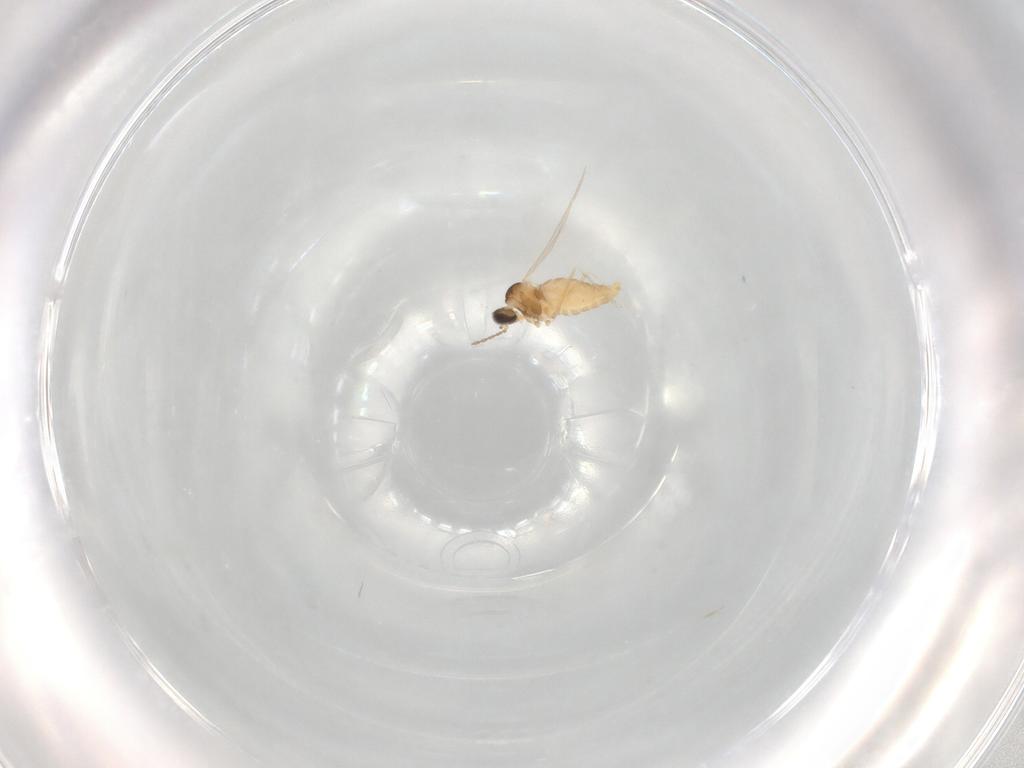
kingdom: Animalia
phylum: Arthropoda
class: Insecta
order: Diptera
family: Cecidomyiidae
